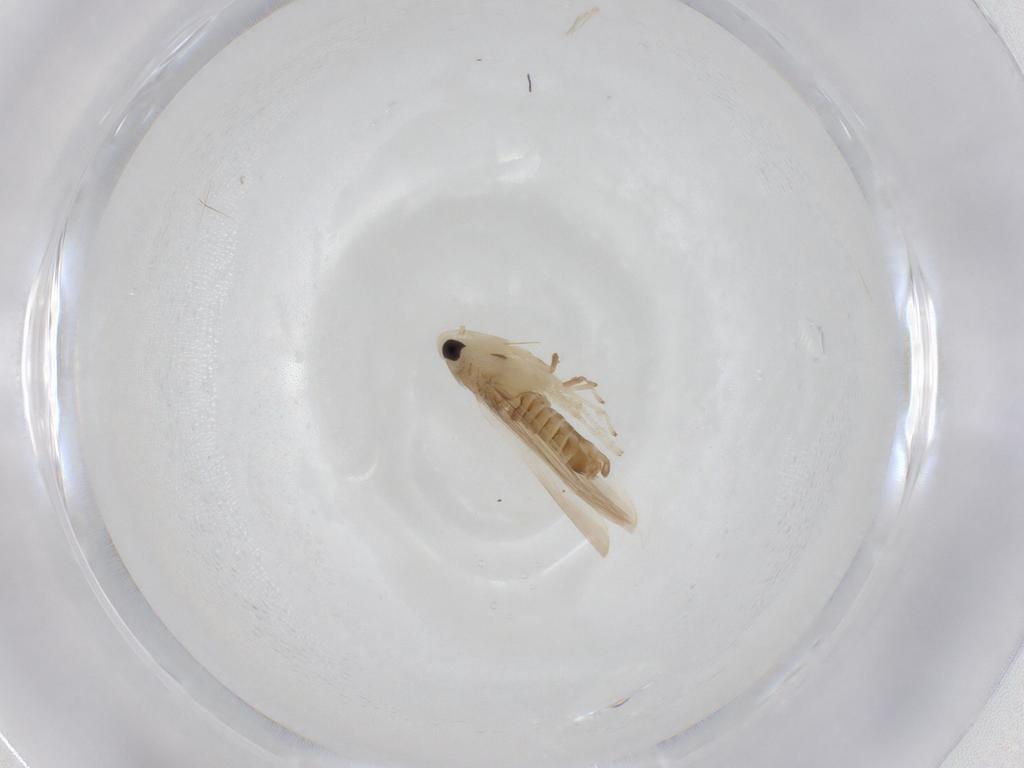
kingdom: Animalia
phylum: Arthropoda
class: Insecta
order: Hemiptera
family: Cicadellidae
